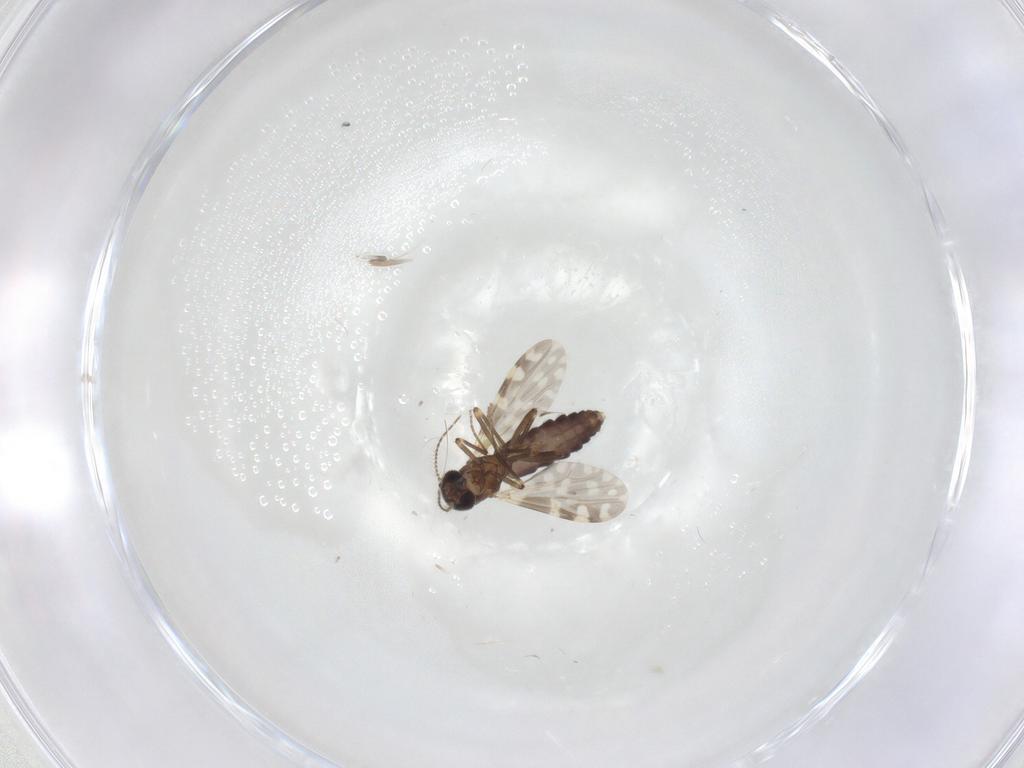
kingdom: Animalia
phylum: Arthropoda
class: Insecta
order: Diptera
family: Ceratopogonidae
